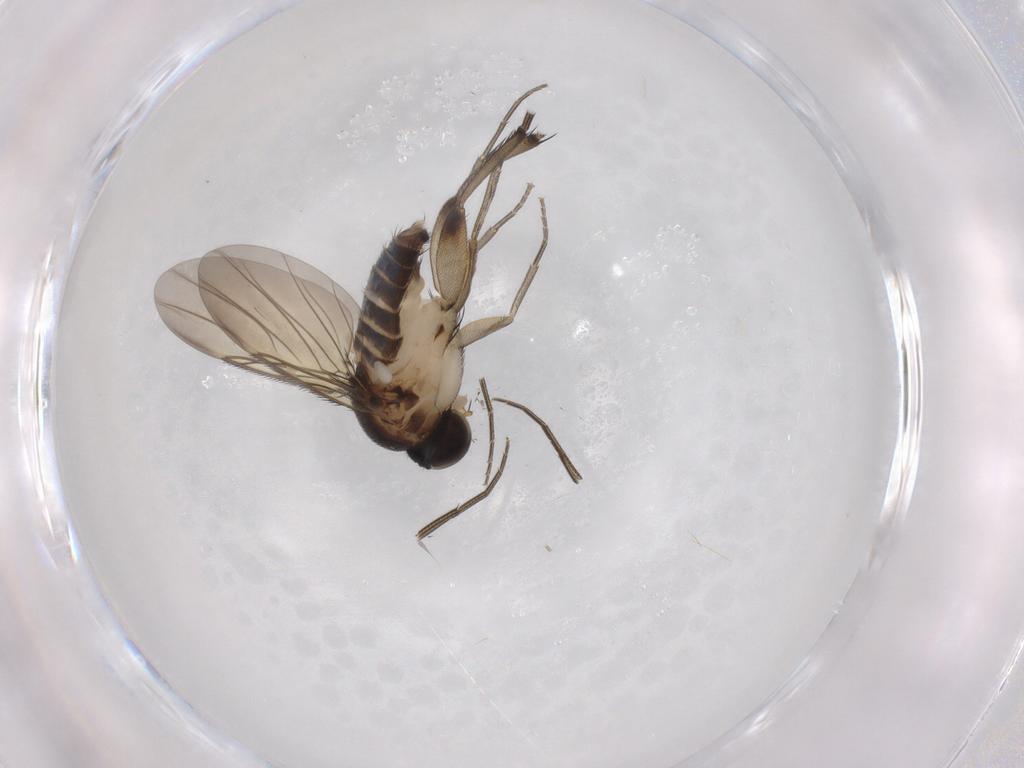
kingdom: Animalia
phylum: Arthropoda
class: Insecta
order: Diptera
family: Phoridae
